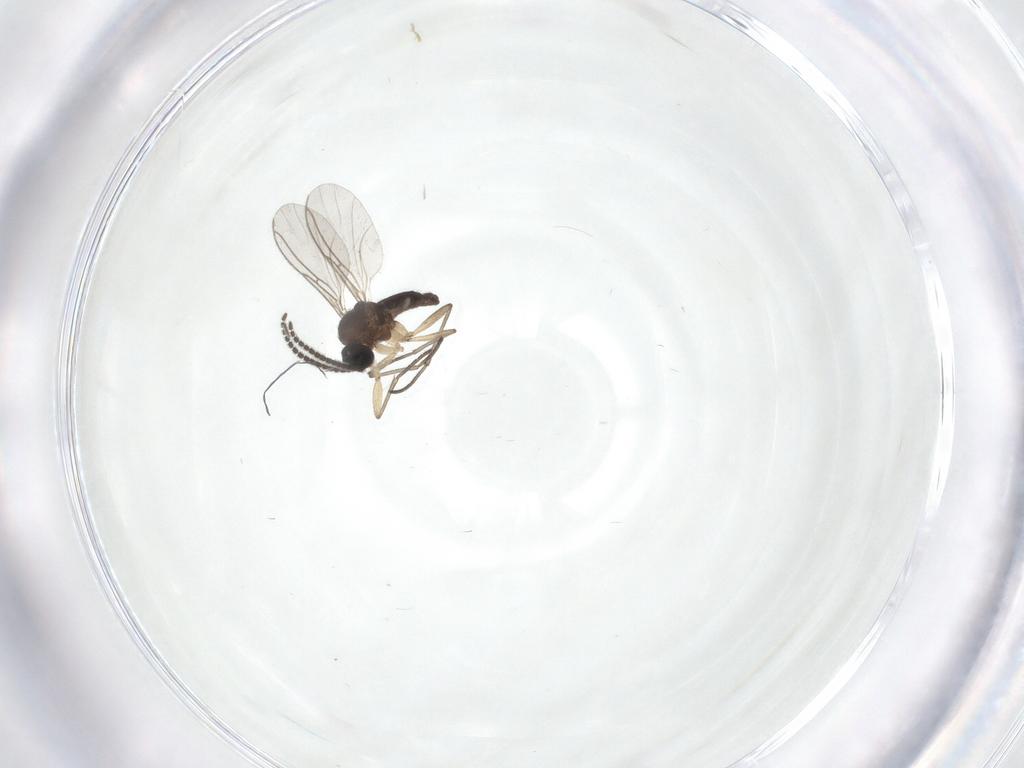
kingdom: Animalia
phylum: Arthropoda
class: Insecta
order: Diptera
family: Sciaridae
